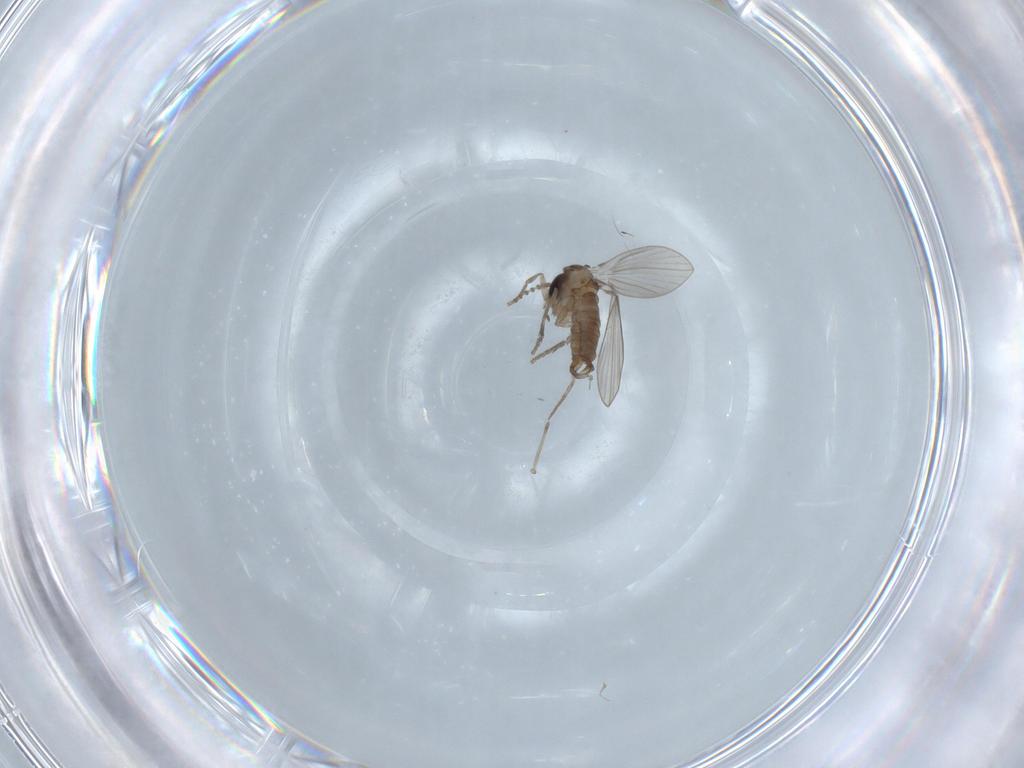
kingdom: Animalia
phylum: Arthropoda
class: Insecta
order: Diptera
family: Psychodidae
